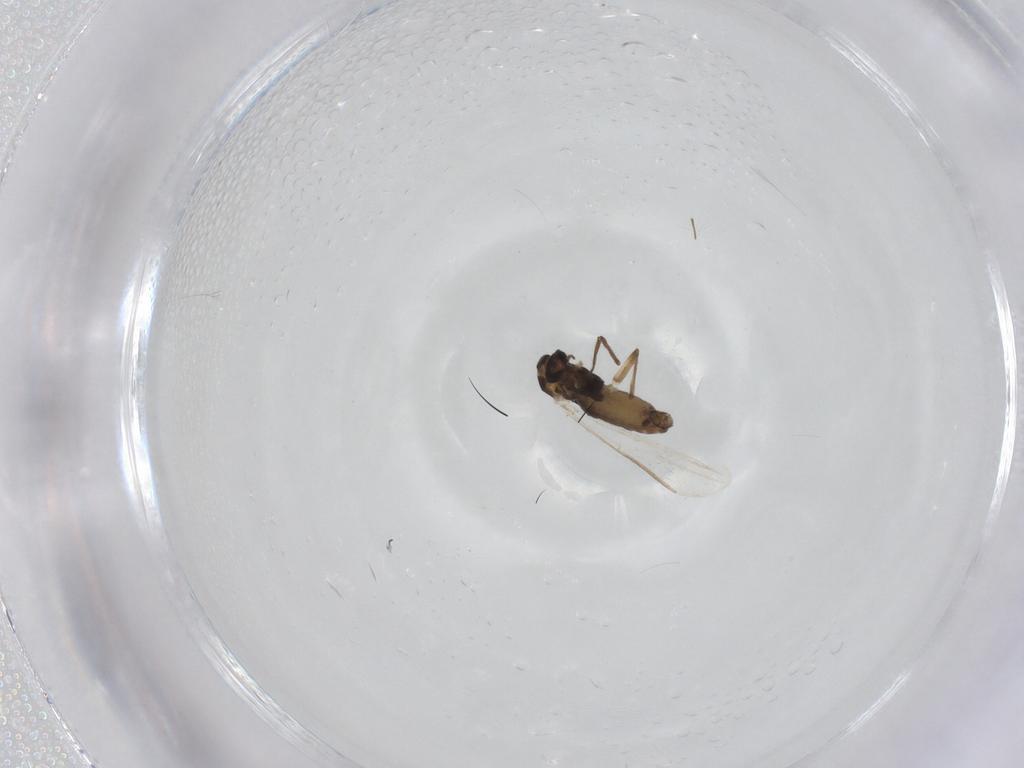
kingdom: Animalia
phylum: Arthropoda
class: Insecta
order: Diptera
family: Chironomidae
